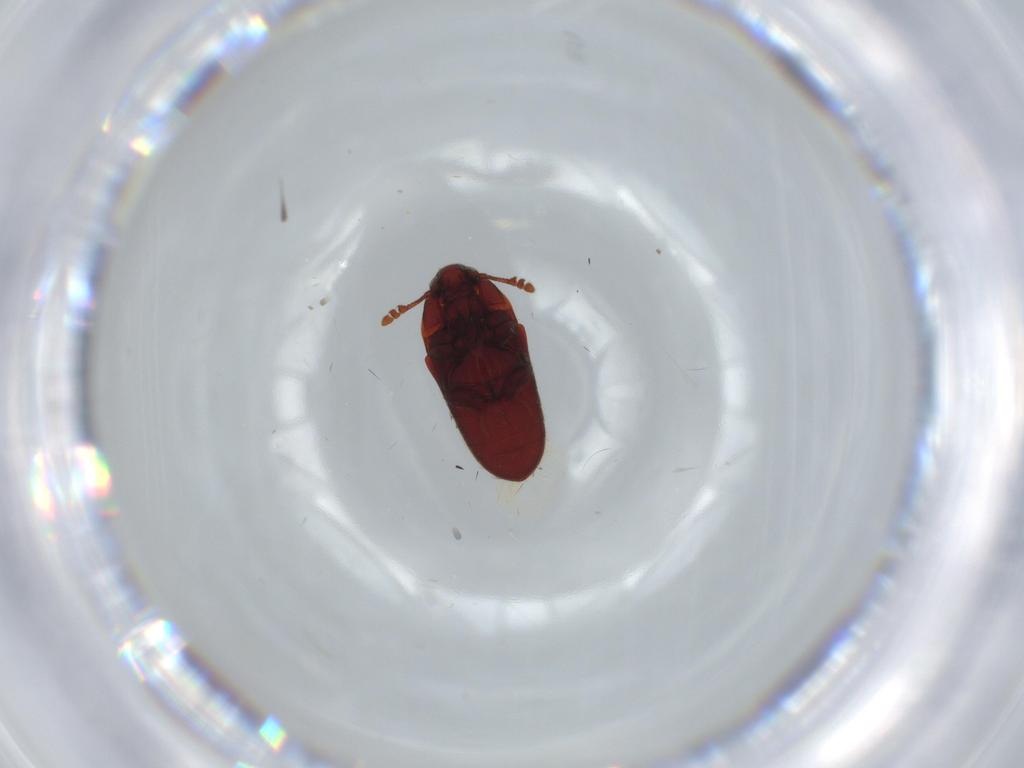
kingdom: Animalia
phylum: Arthropoda
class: Insecta
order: Coleoptera
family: Throscidae
